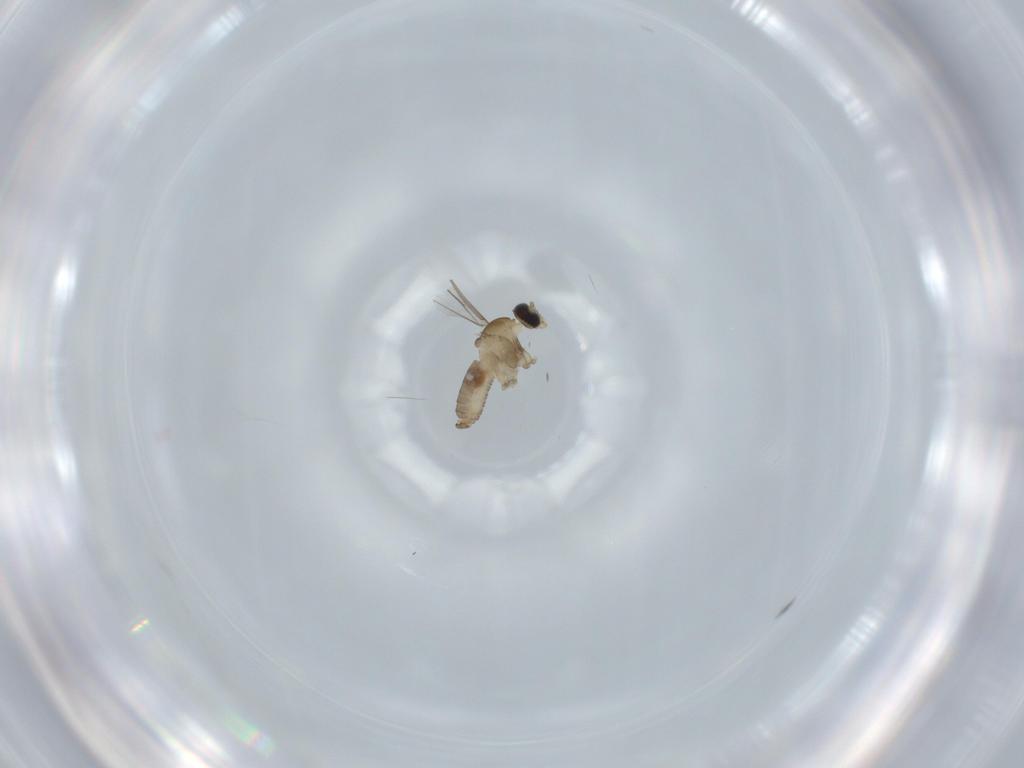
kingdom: Animalia
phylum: Arthropoda
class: Insecta
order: Diptera
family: Cecidomyiidae
